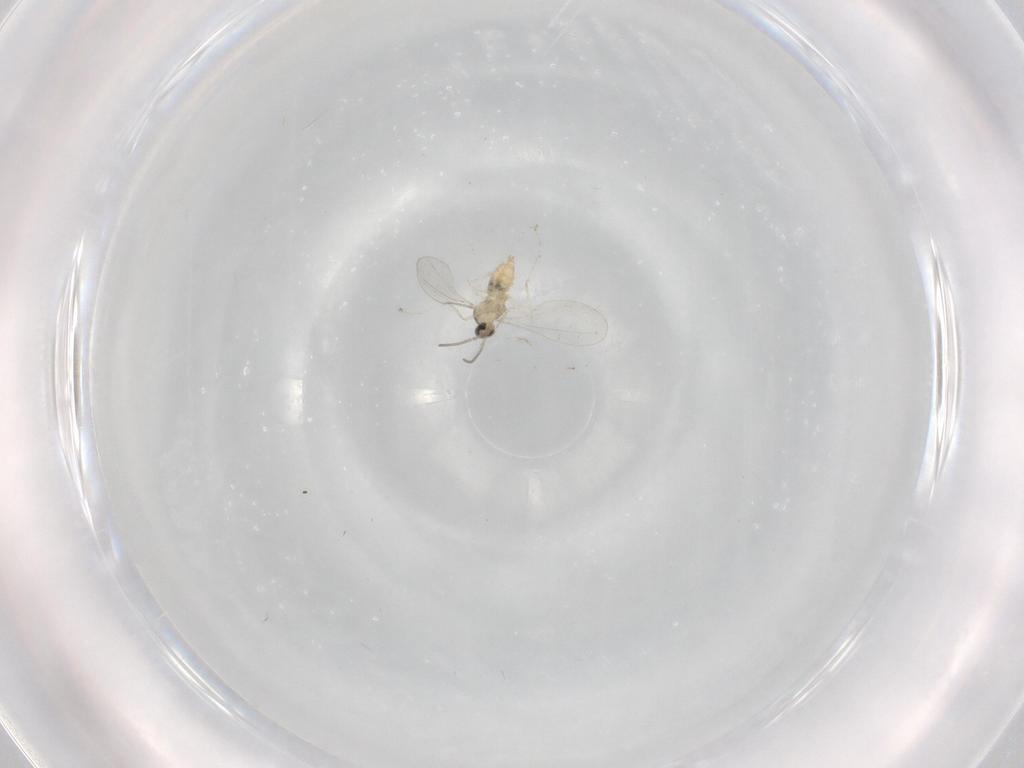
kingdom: Animalia
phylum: Arthropoda
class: Insecta
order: Diptera
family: Cecidomyiidae
